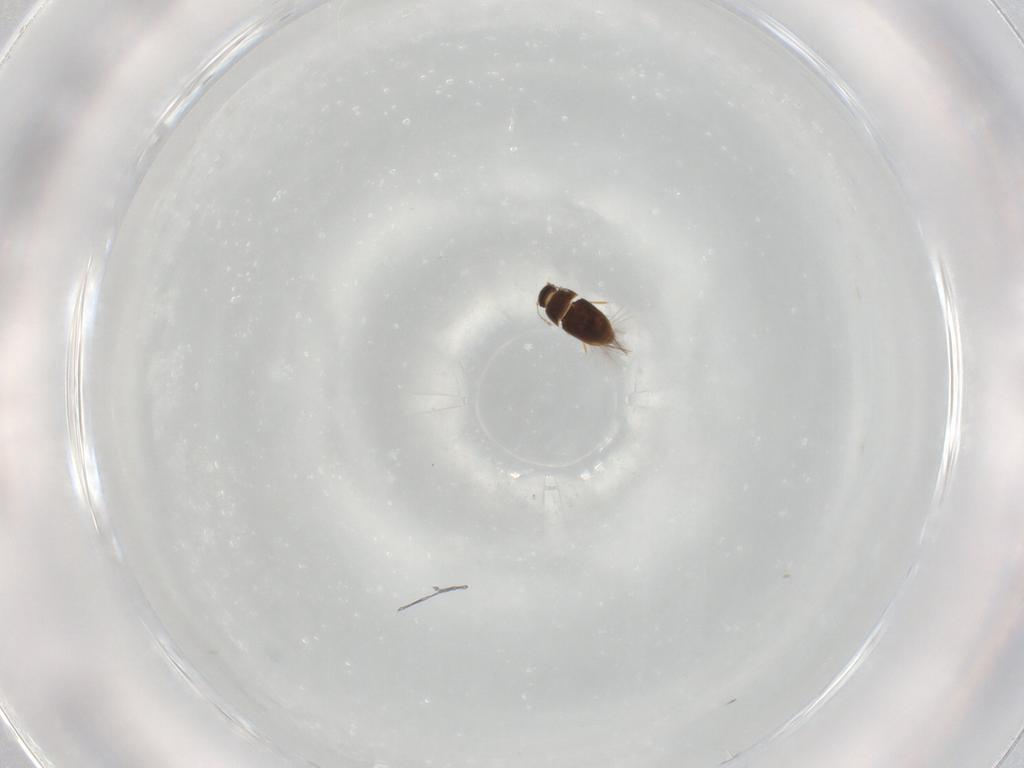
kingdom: Animalia
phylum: Arthropoda
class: Insecta
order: Coleoptera
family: Ptiliidae
